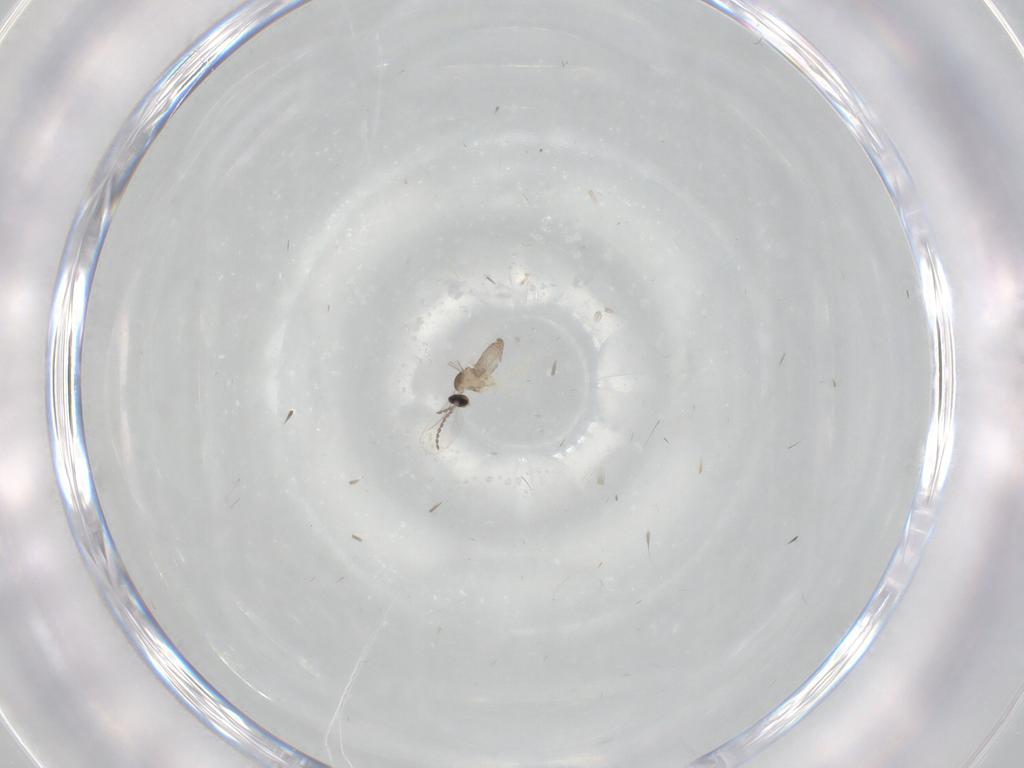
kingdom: Animalia
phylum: Arthropoda
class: Insecta
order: Diptera
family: Cecidomyiidae
